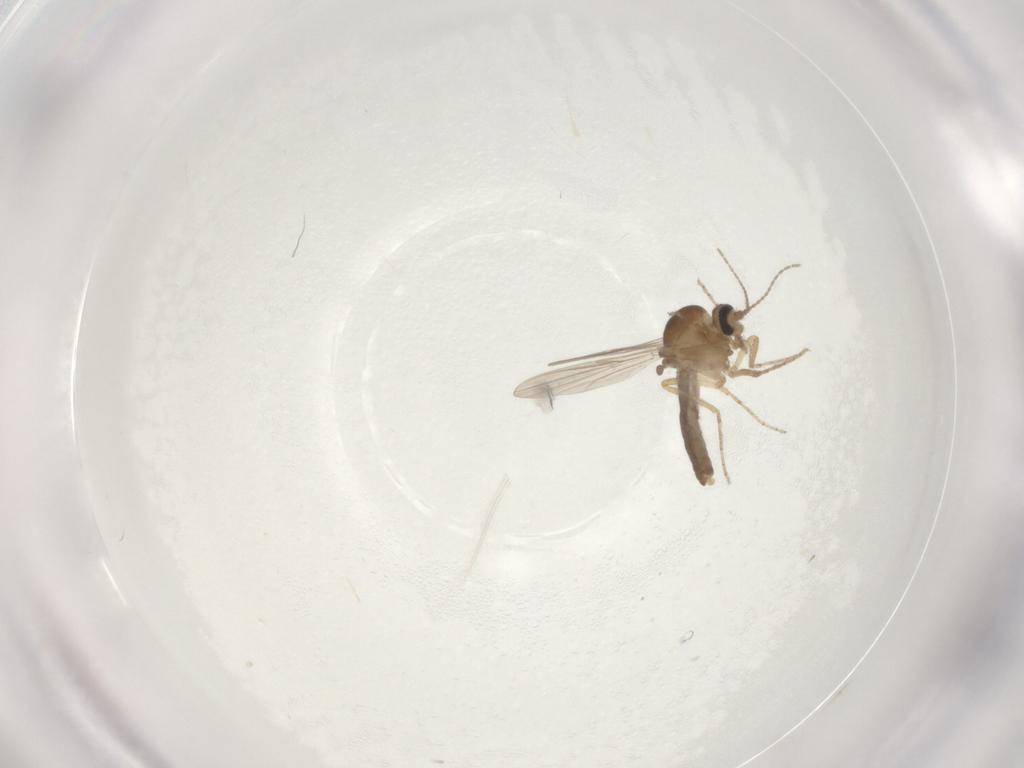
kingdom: Animalia
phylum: Arthropoda
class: Insecta
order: Diptera
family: Ceratopogonidae
